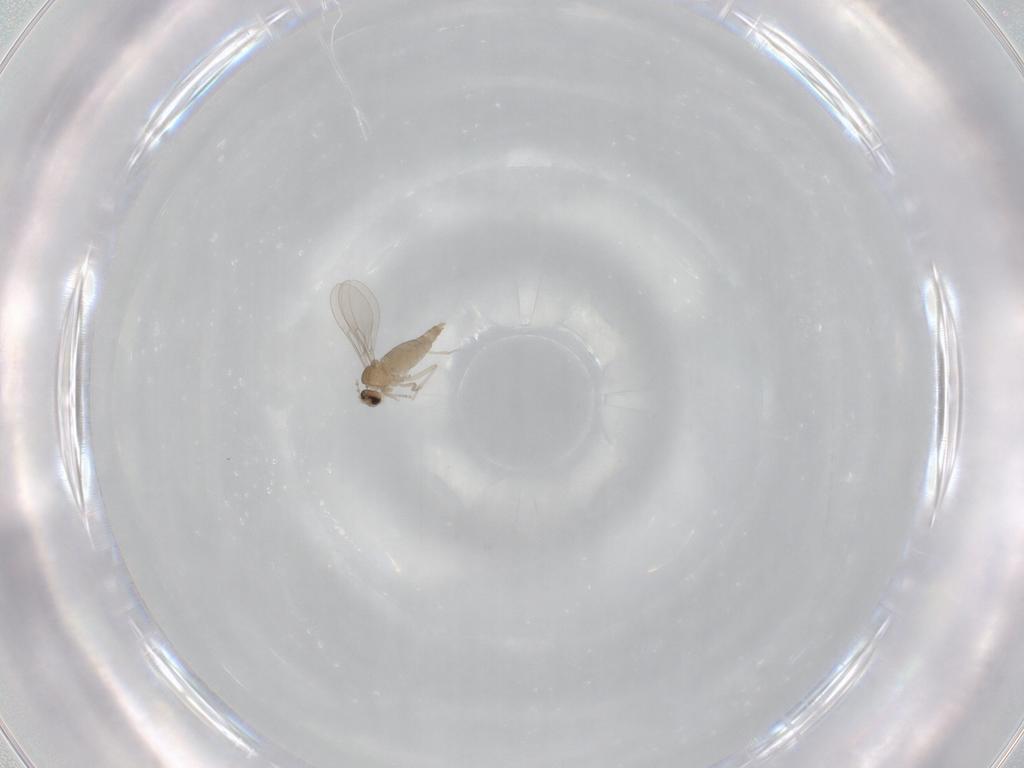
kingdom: Animalia
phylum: Arthropoda
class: Insecta
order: Diptera
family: Cecidomyiidae
